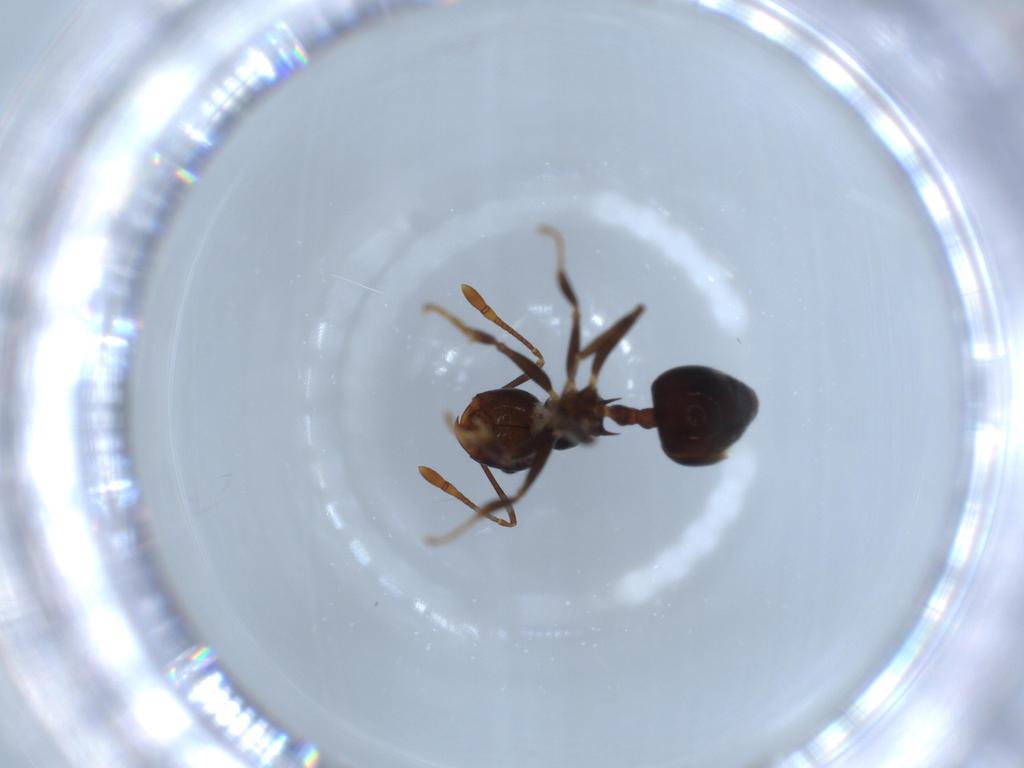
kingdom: Animalia
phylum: Arthropoda
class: Insecta
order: Hymenoptera
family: Formicidae
